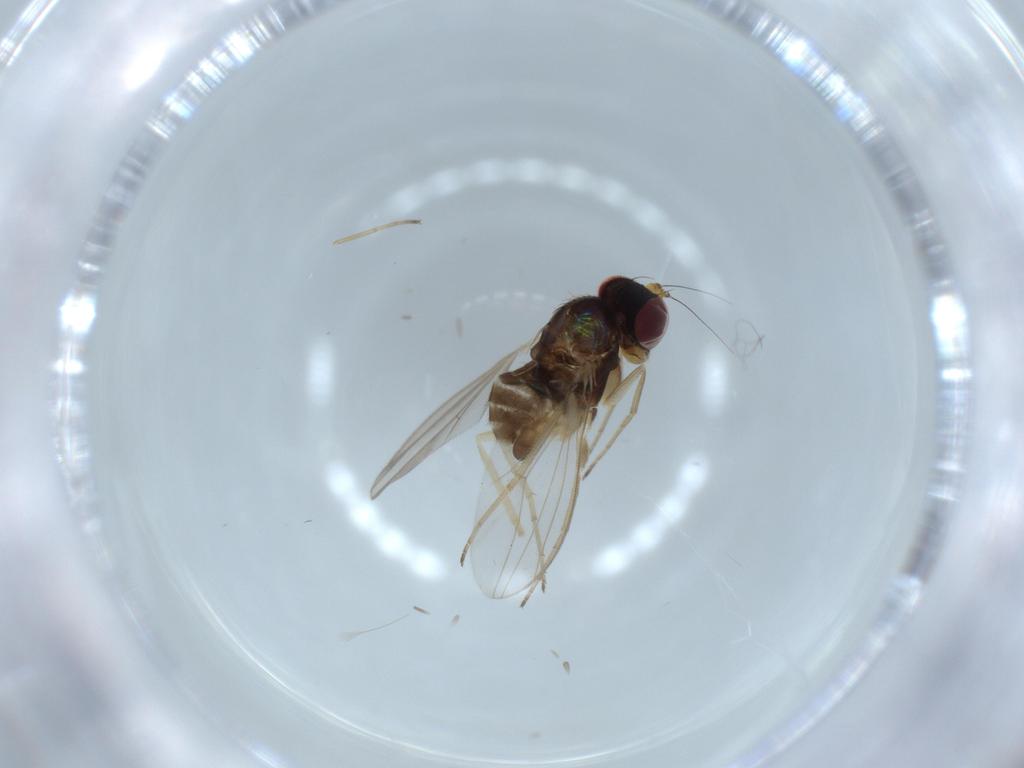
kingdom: Animalia
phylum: Arthropoda
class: Insecta
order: Diptera
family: Dolichopodidae
